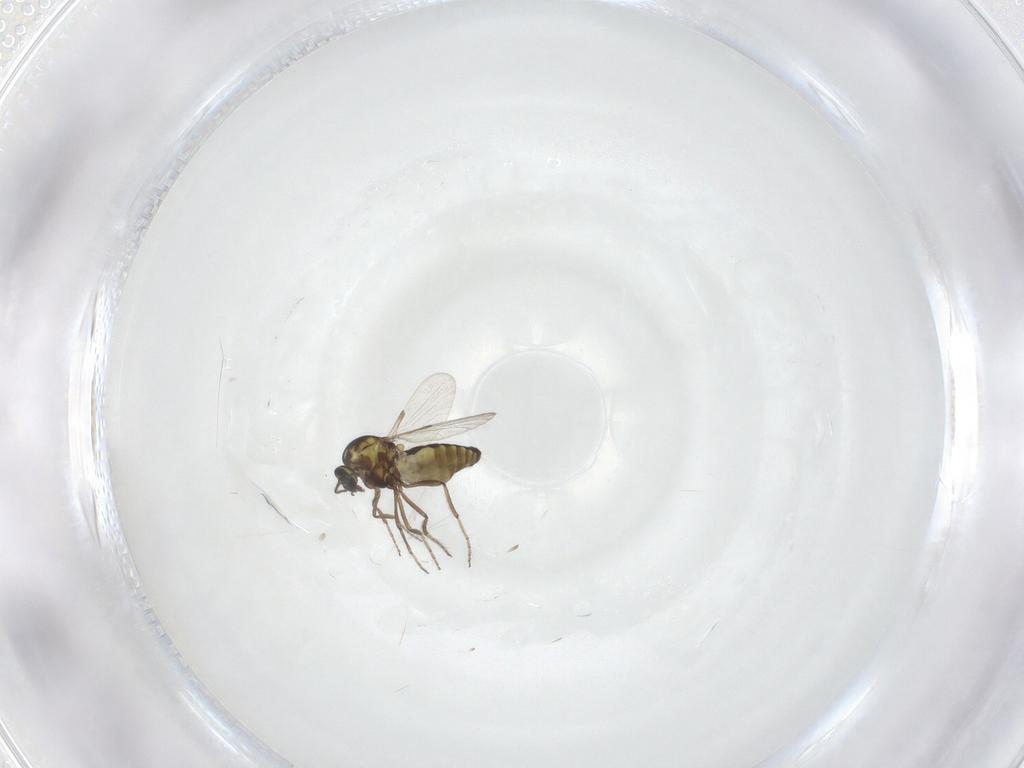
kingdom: Animalia
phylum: Arthropoda
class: Insecta
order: Diptera
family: Ceratopogonidae
